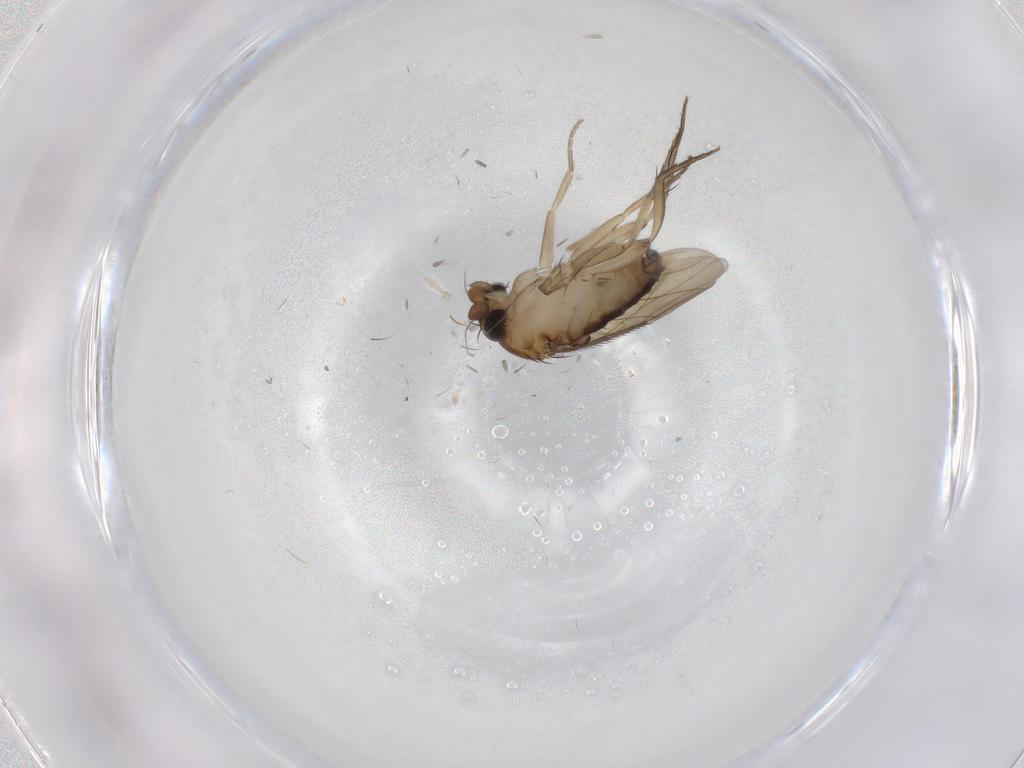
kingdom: Animalia
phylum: Arthropoda
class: Insecta
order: Diptera
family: Phoridae
